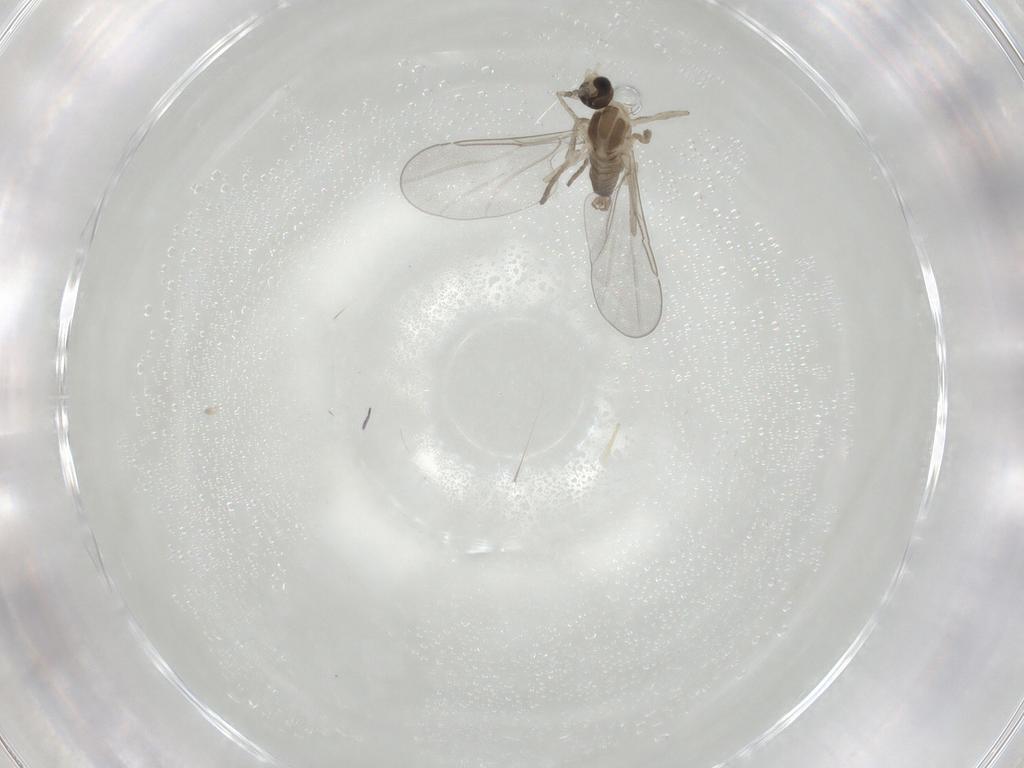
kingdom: Animalia
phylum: Arthropoda
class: Insecta
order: Diptera
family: Cecidomyiidae
